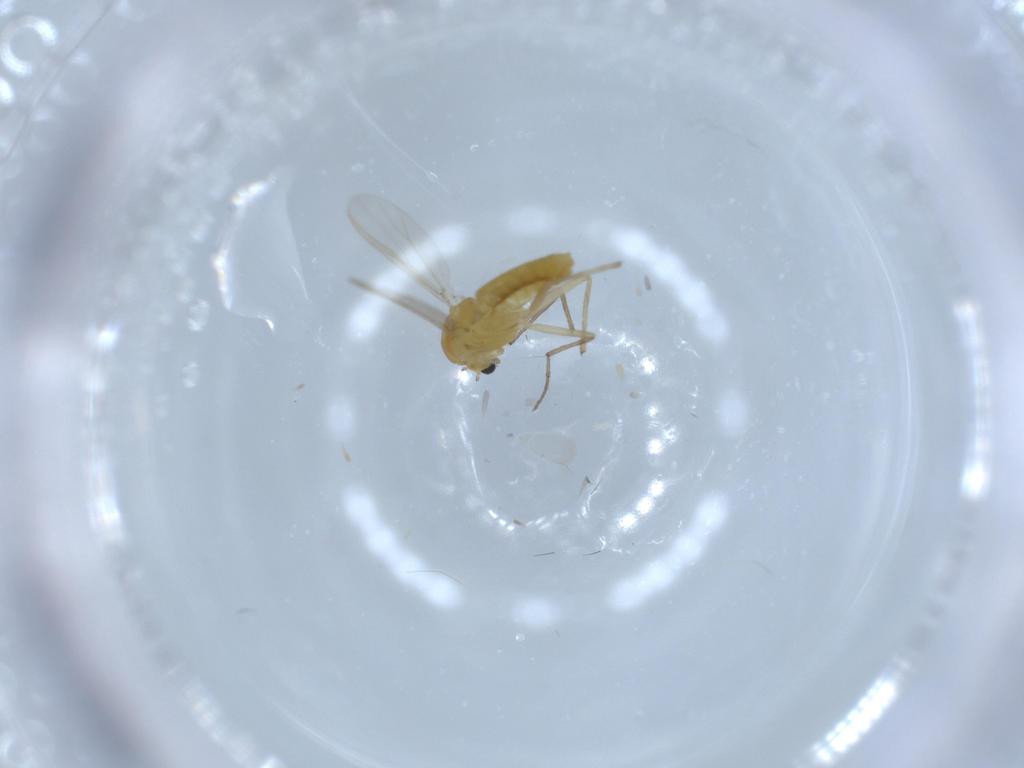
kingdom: Animalia
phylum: Arthropoda
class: Insecta
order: Diptera
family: Chironomidae
